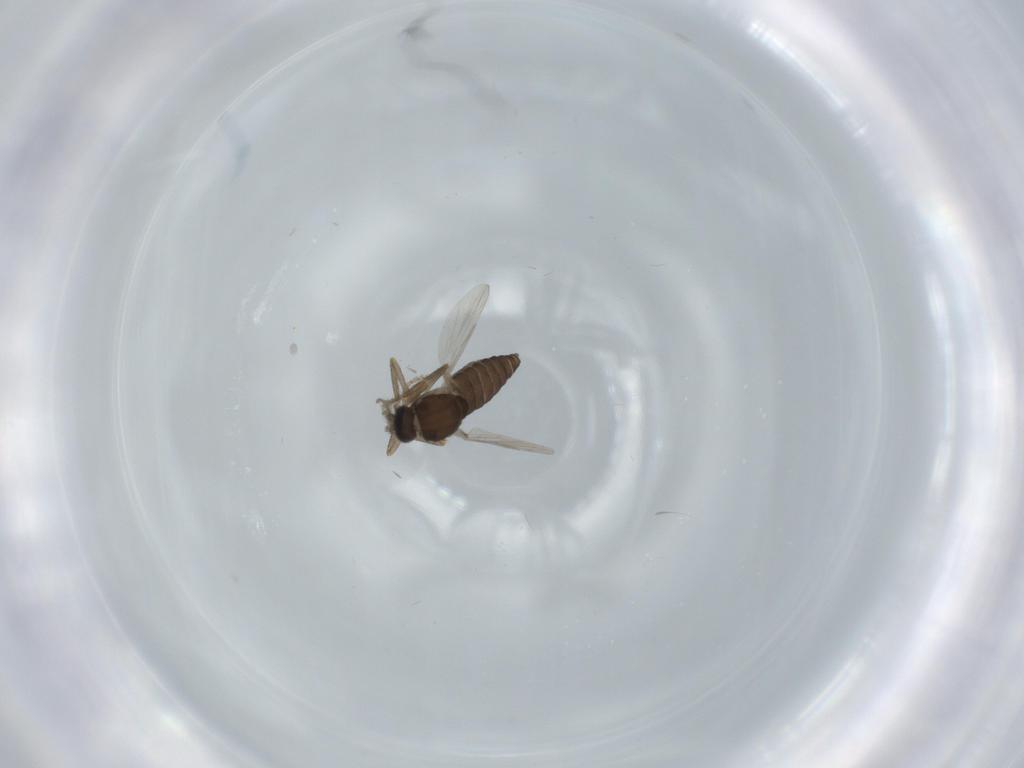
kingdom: Animalia
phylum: Arthropoda
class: Insecta
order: Diptera
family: Ceratopogonidae
